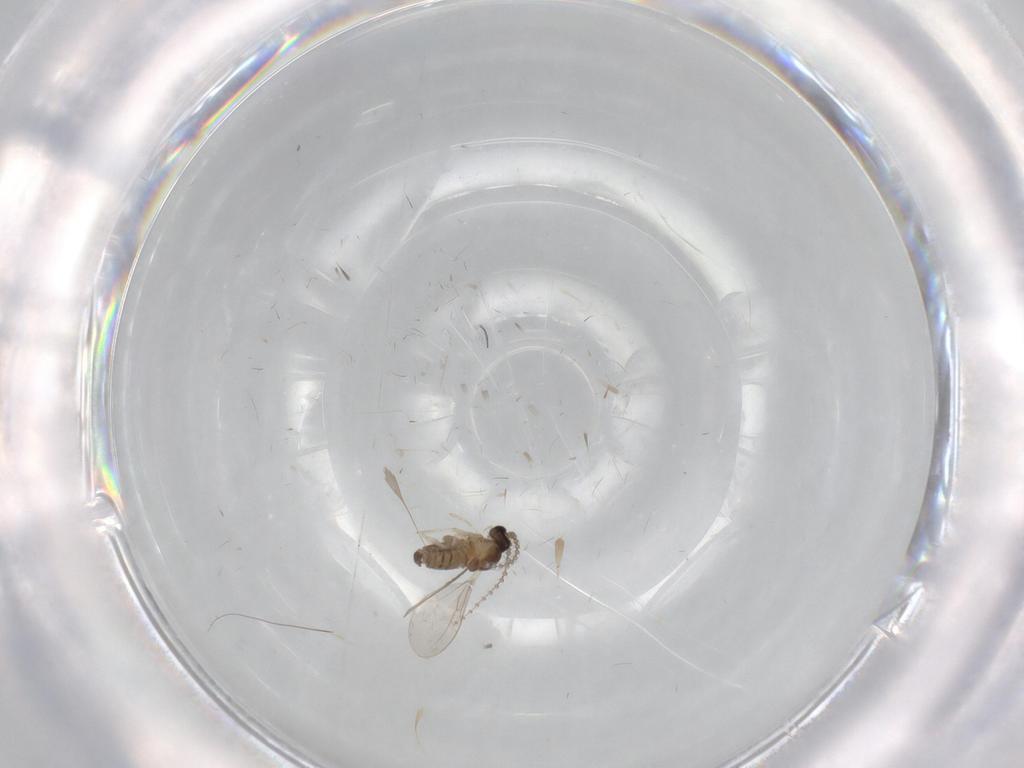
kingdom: Animalia
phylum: Arthropoda
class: Insecta
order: Diptera
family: Cecidomyiidae
